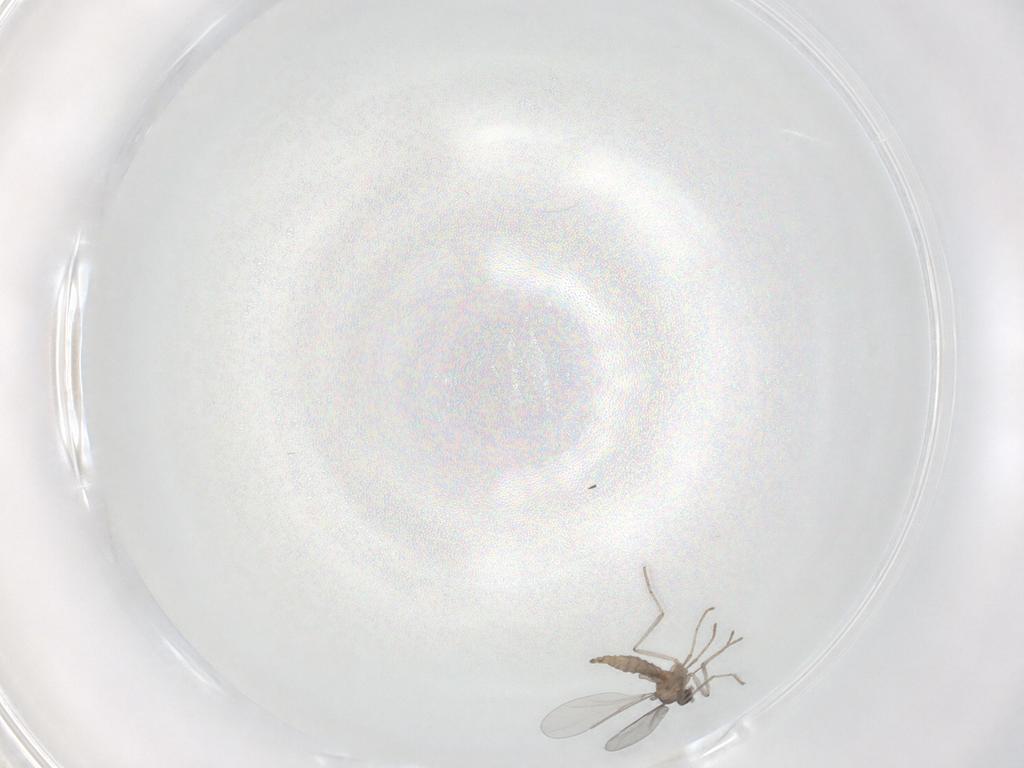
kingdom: Animalia
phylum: Arthropoda
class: Insecta
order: Diptera
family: Cecidomyiidae
